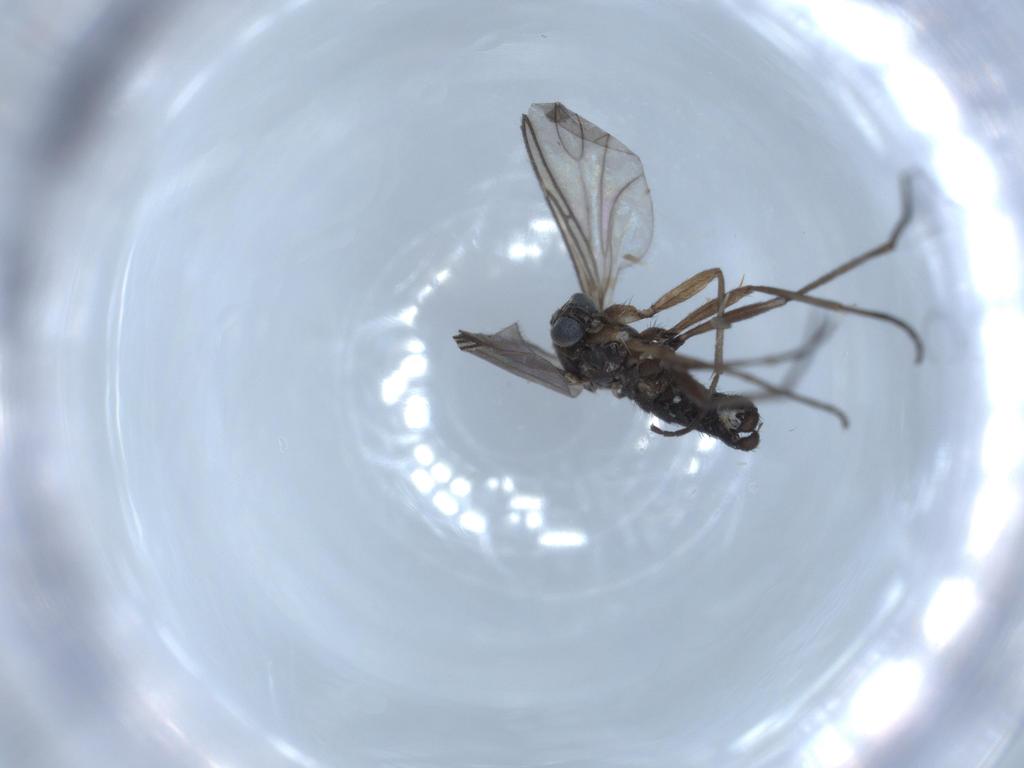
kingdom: Animalia
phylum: Arthropoda
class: Insecta
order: Diptera
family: Sciaridae
